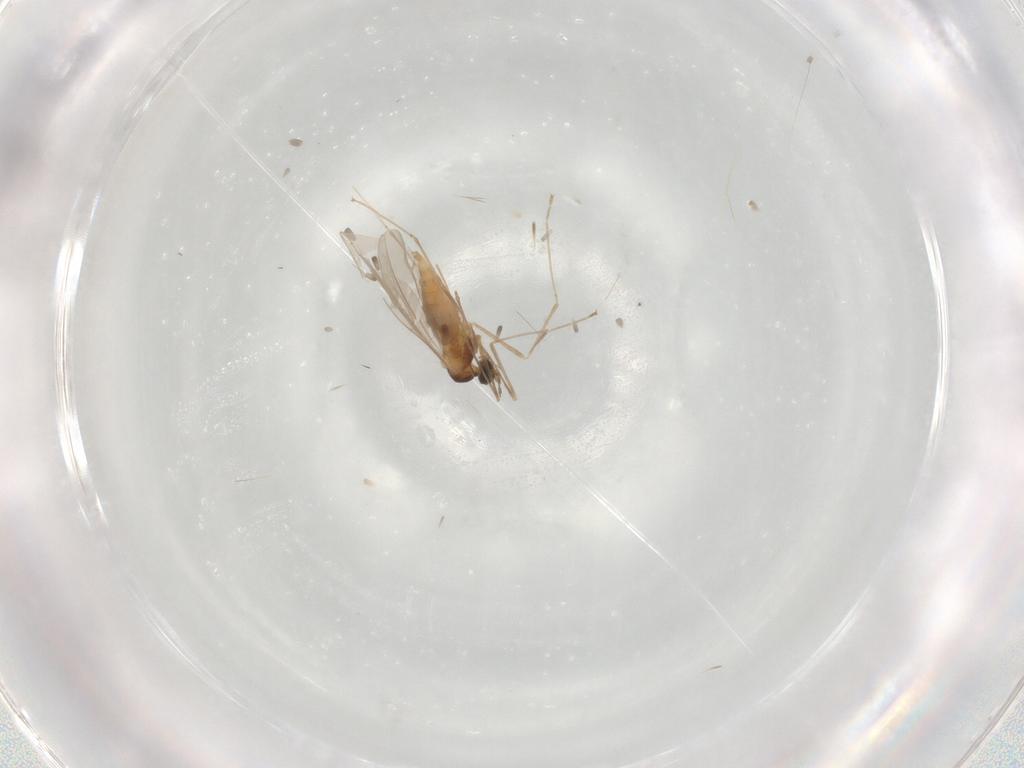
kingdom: Animalia
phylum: Arthropoda
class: Insecta
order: Diptera
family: Cecidomyiidae
